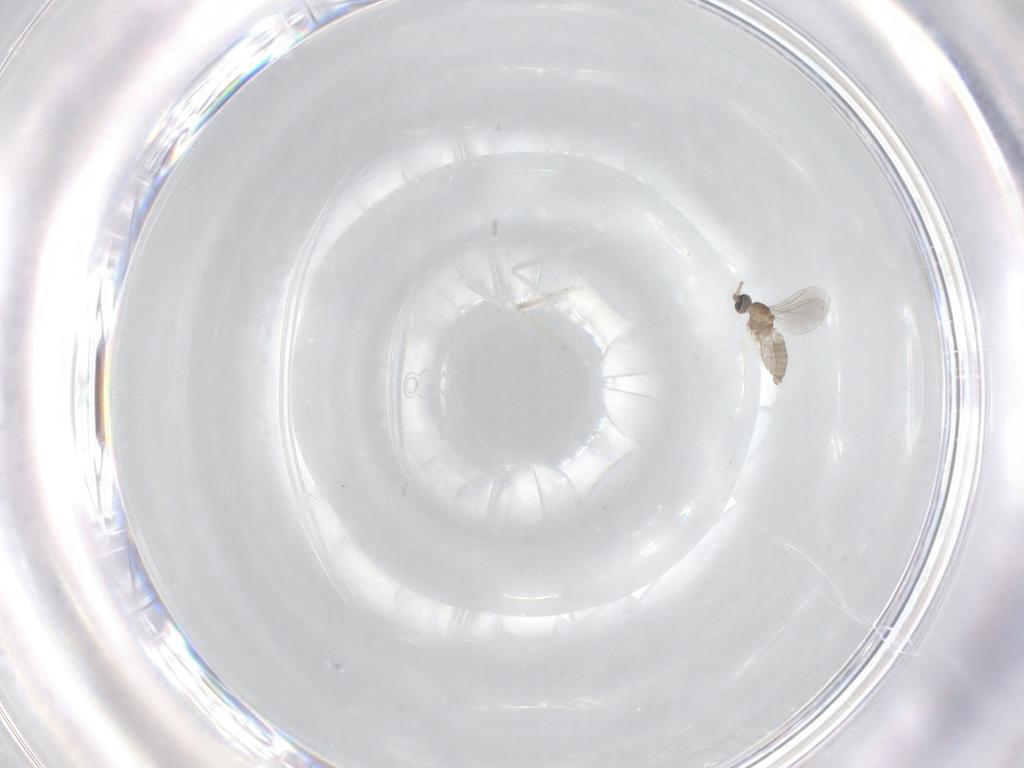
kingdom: Animalia
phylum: Arthropoda
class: Insecta
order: Diptera
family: Cecidomyiidae
